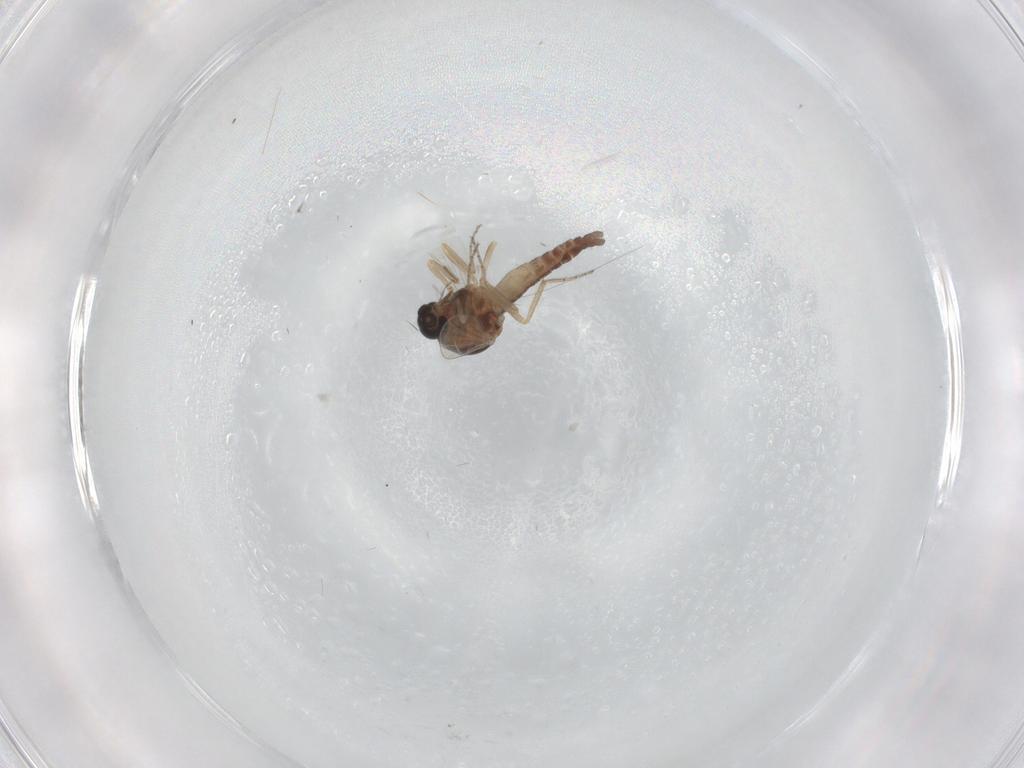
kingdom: Animalia
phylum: Arthropoda
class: Insecta
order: Diptera
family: Ceratopogonidae
